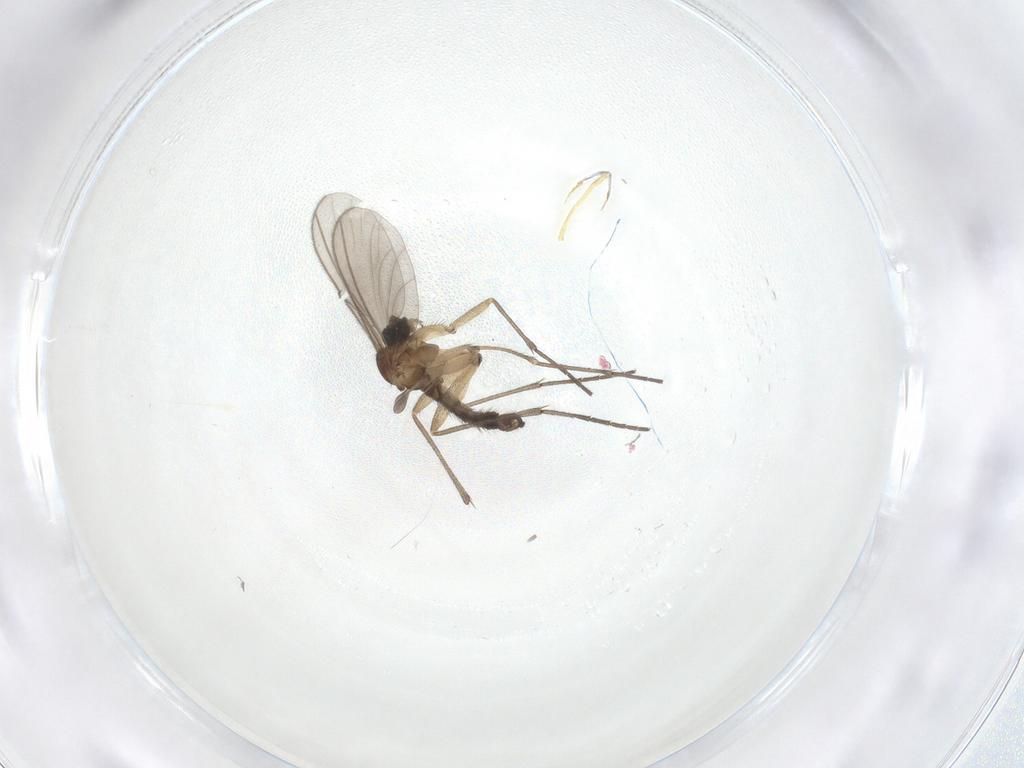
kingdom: Animalia
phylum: Arthropoda
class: Insecta
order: Diptera
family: Sciaridae
